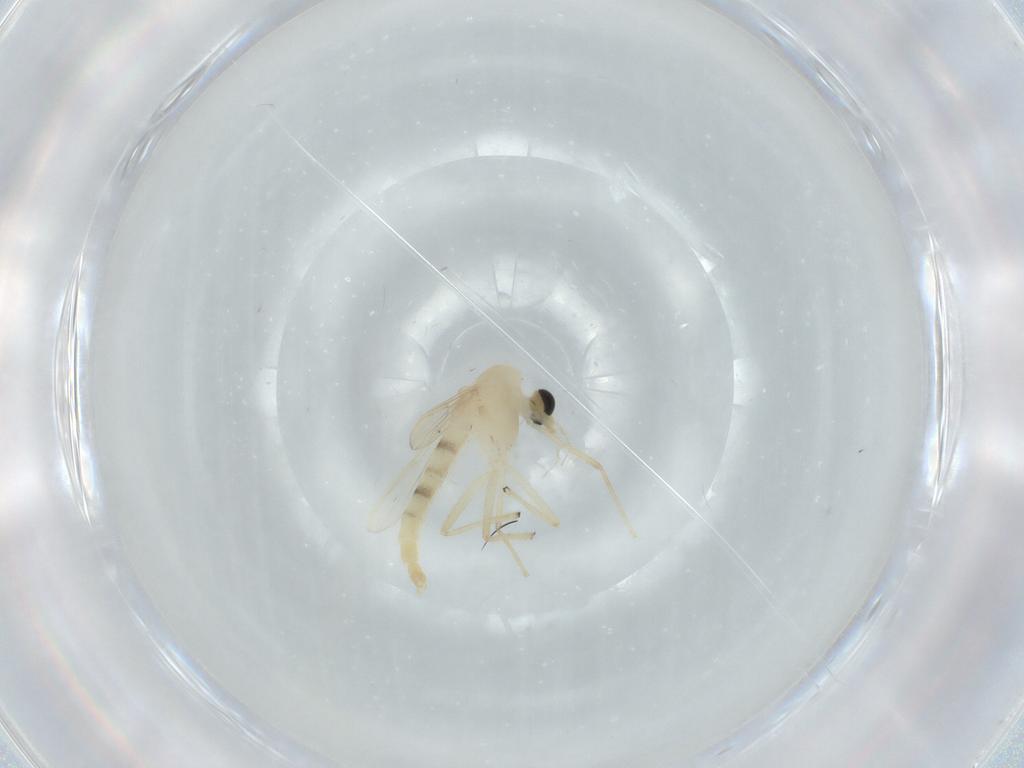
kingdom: Animalia
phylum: Arthropoda
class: Insecta
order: Diptera
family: Chironomidae
